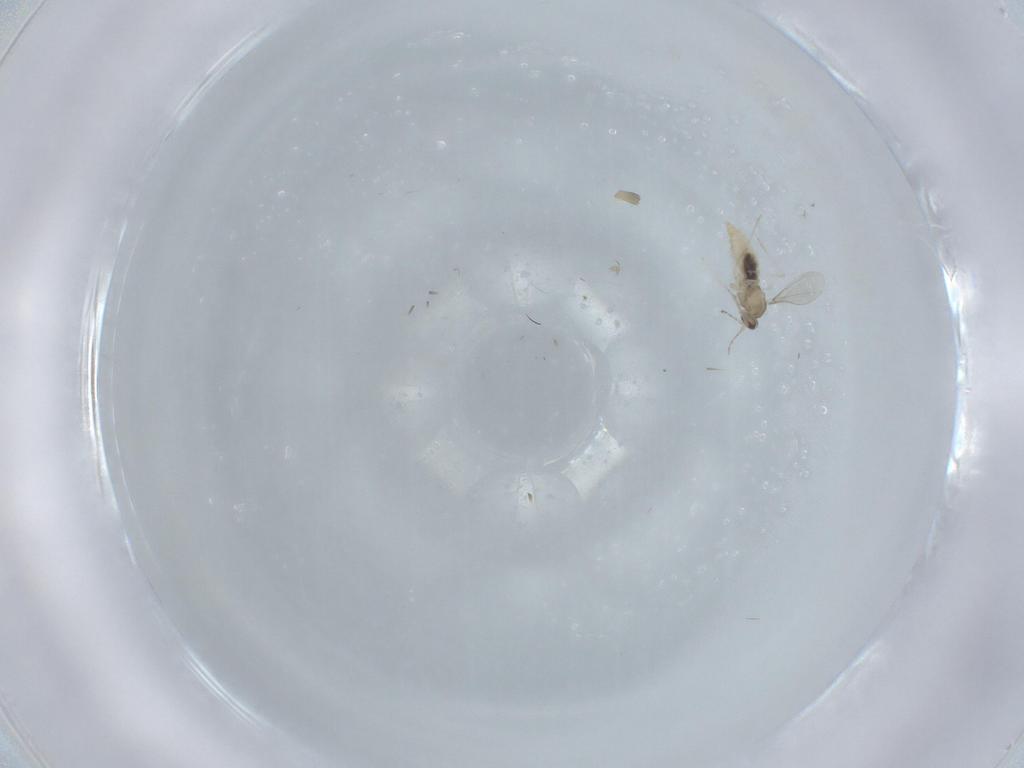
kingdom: Animalia
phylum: Arthropoda
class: Insecta
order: Diptera
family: Cecidomyiidae
